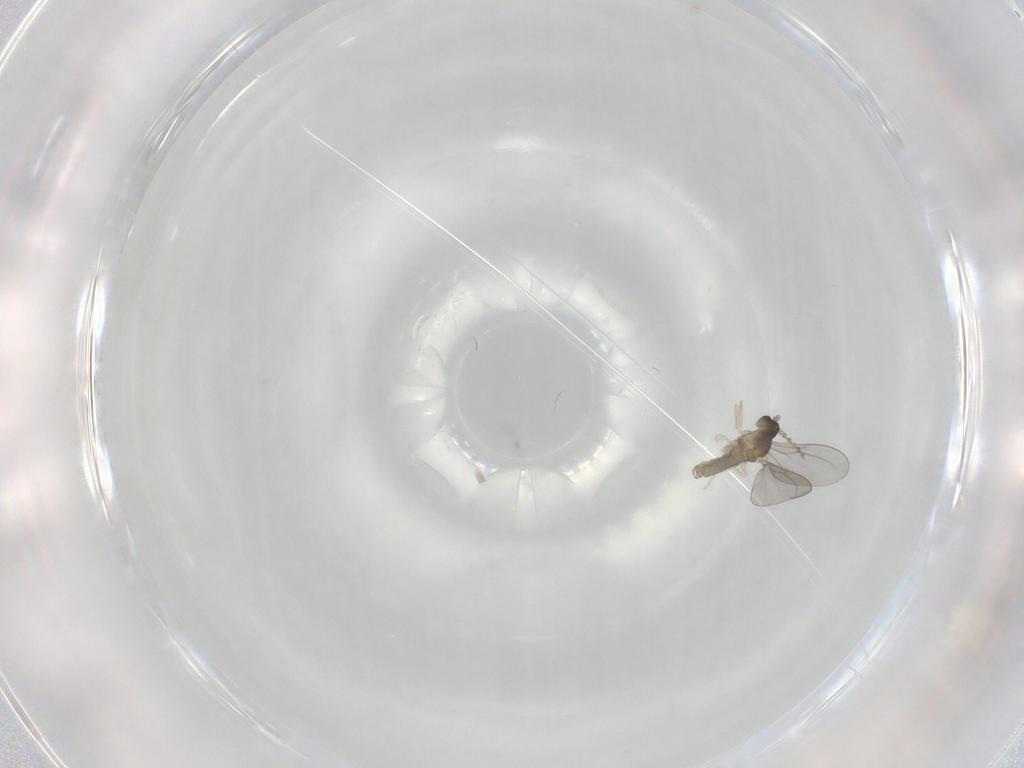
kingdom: Animalia
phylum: Arthropoda
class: Insecta
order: Diptera
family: Cecidomyiidae
